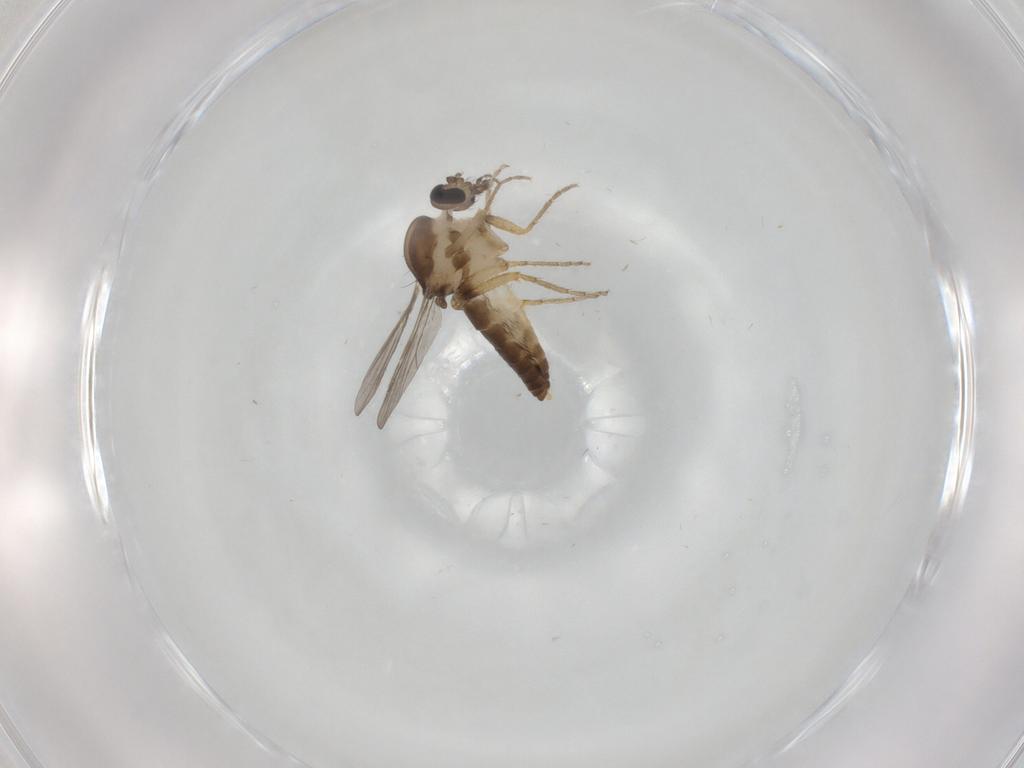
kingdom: Animalia
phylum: Arthropoda
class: Insecta
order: Diptera
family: Ceratopogonidae
